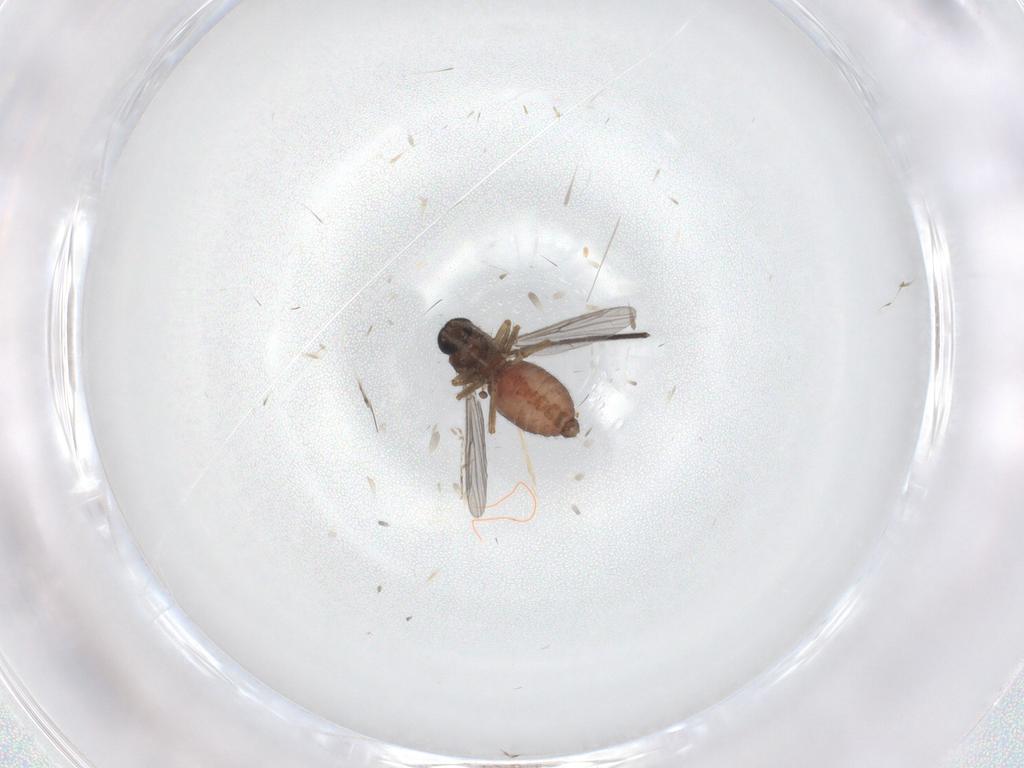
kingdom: Animalia
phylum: Arthropoda
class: Insecta
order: Diptera
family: Ceratopogonidae
